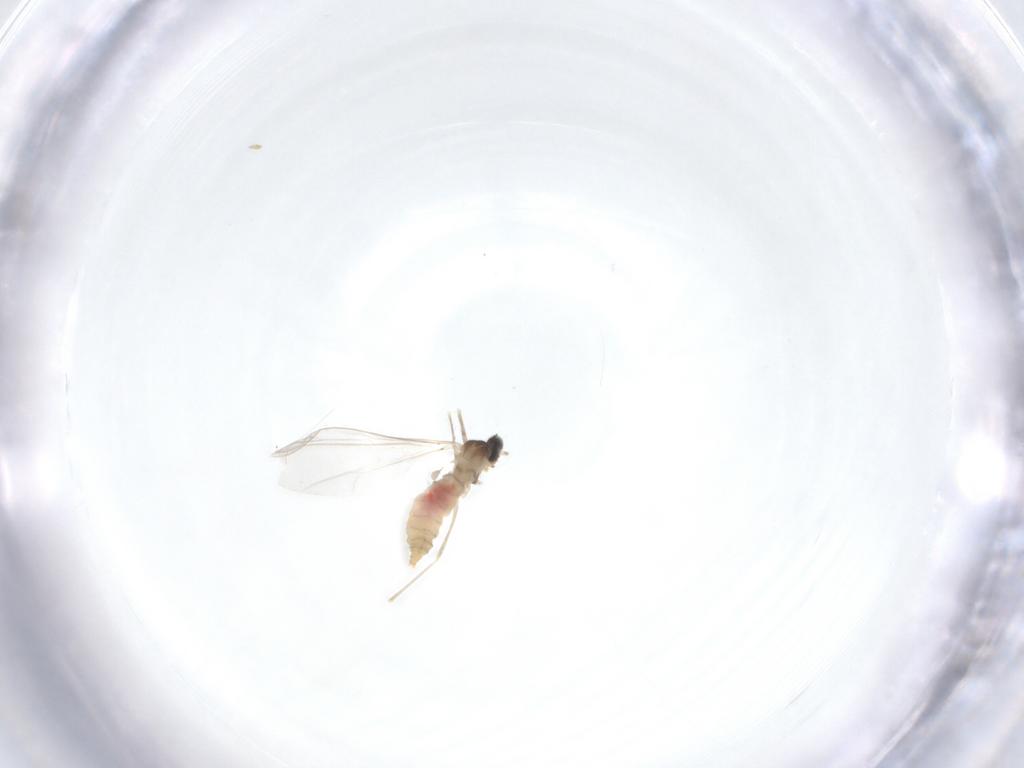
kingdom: Animalia
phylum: Arthropoda
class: Insecta
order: Diptera
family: Cecidomyiidae
